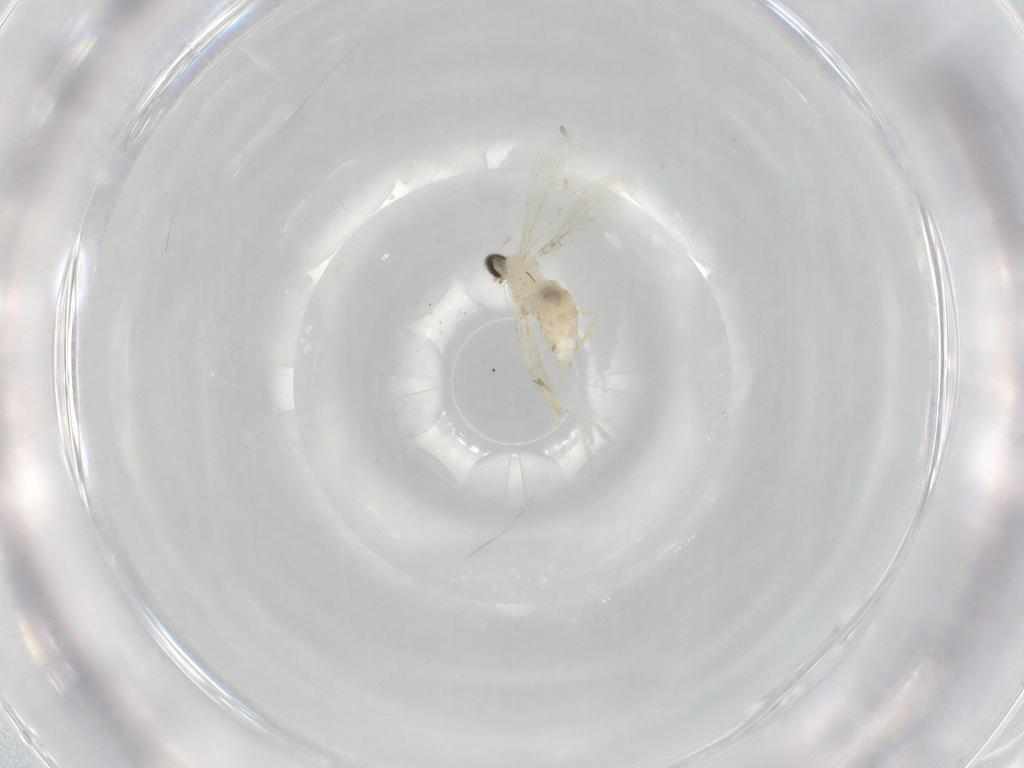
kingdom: Animalia
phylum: Arthropoda
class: Insecta
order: Diptera
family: Cecidomyiidae
